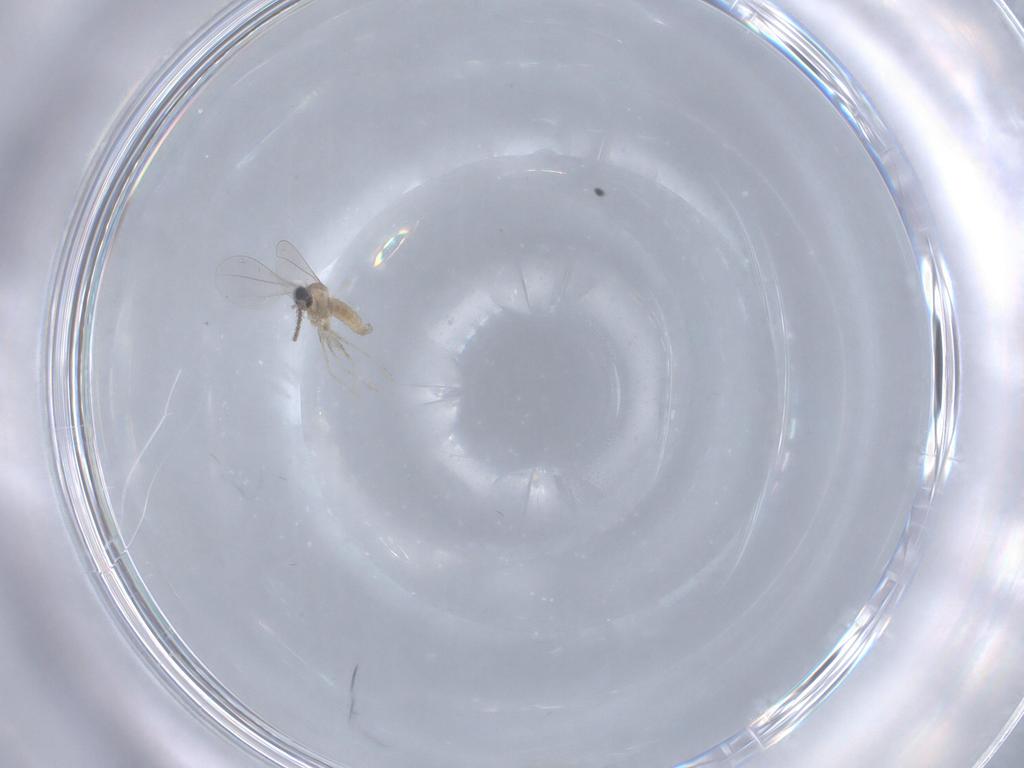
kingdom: Animalia
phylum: Arthropoda
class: Insecta
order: Diptera
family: Cecidomyiidae
